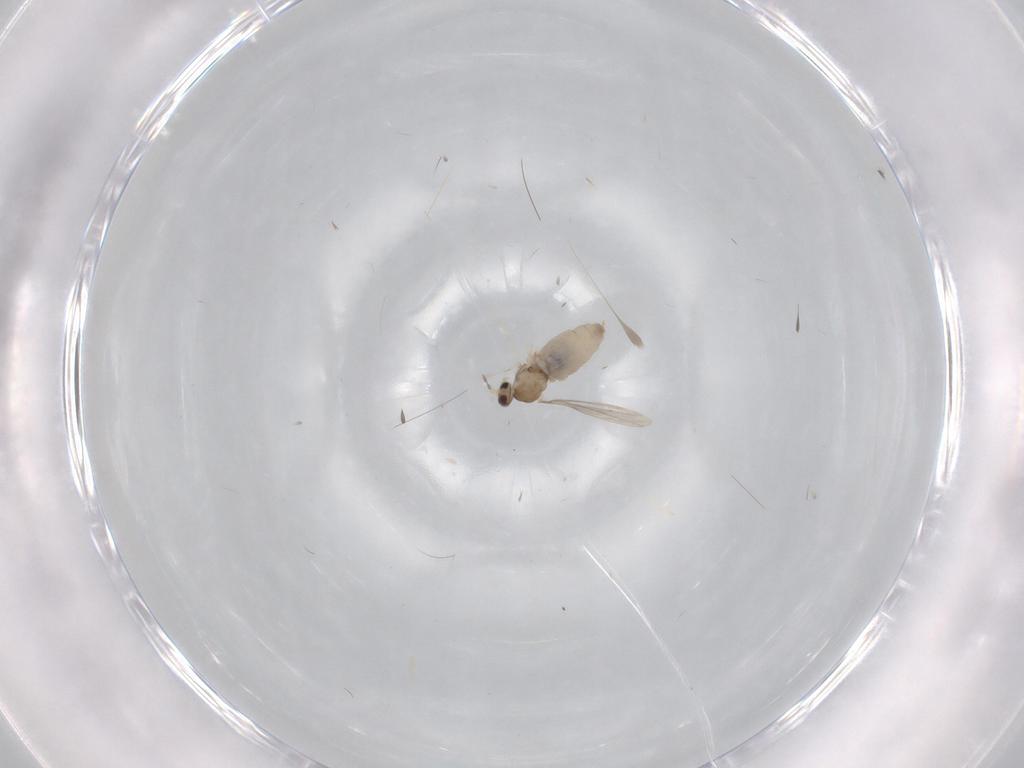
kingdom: Animalia
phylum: Arthropoda
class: Insecta
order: Diptera
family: Cecidomyiidae
